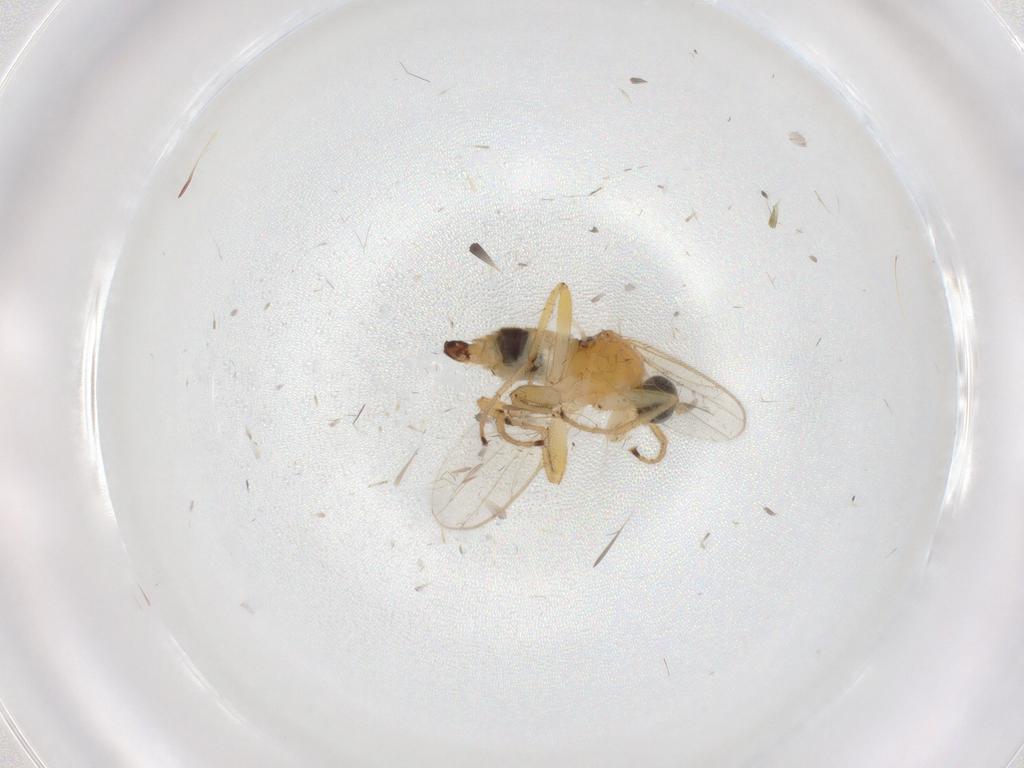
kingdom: Animalia
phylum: Arthropoda
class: Insecta
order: Diptera
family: Hybotidae
